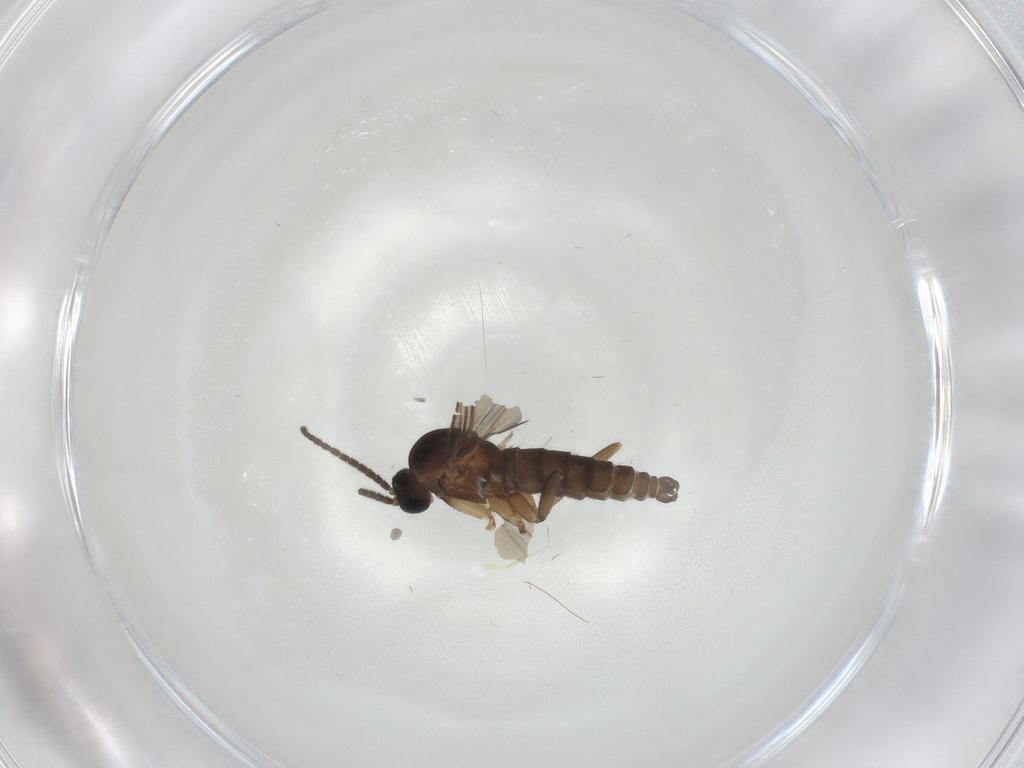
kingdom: Animalia
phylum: Arthropoda
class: Insecta
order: Diptera
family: Sciaridae
